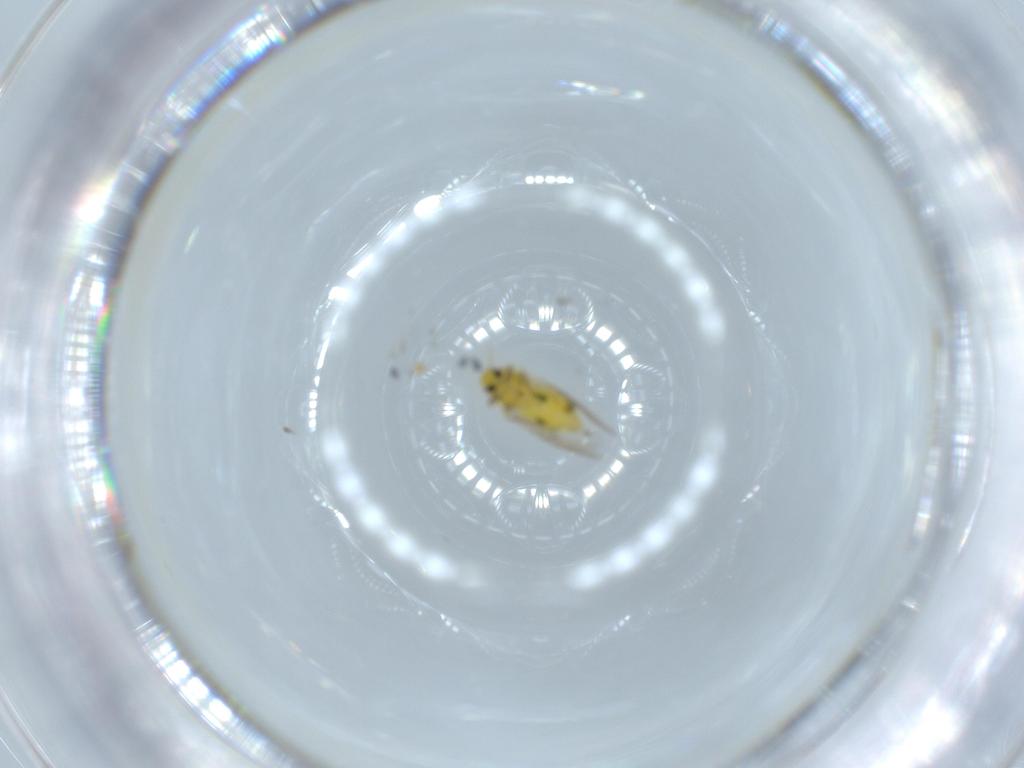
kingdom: Animalia
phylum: Arthropoda
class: Insecta
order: Hemiptera
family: Aleyrodidae
